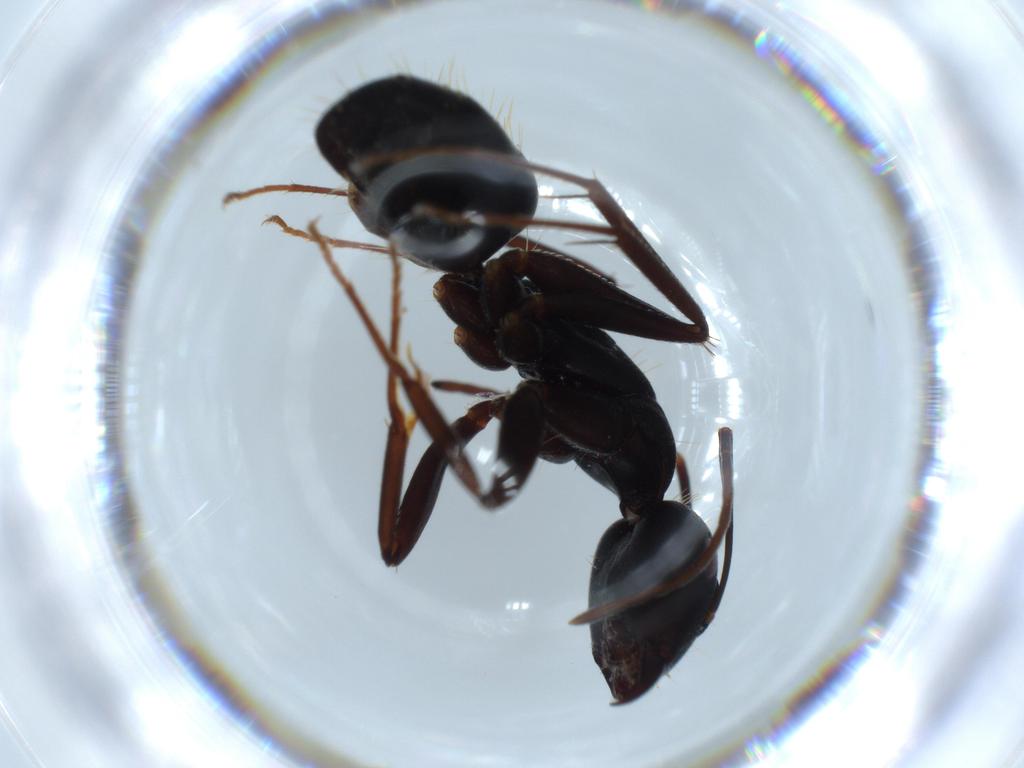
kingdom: Animalia
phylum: Arthropoda
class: Insecta
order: Hymenoptera
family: Formicidae
